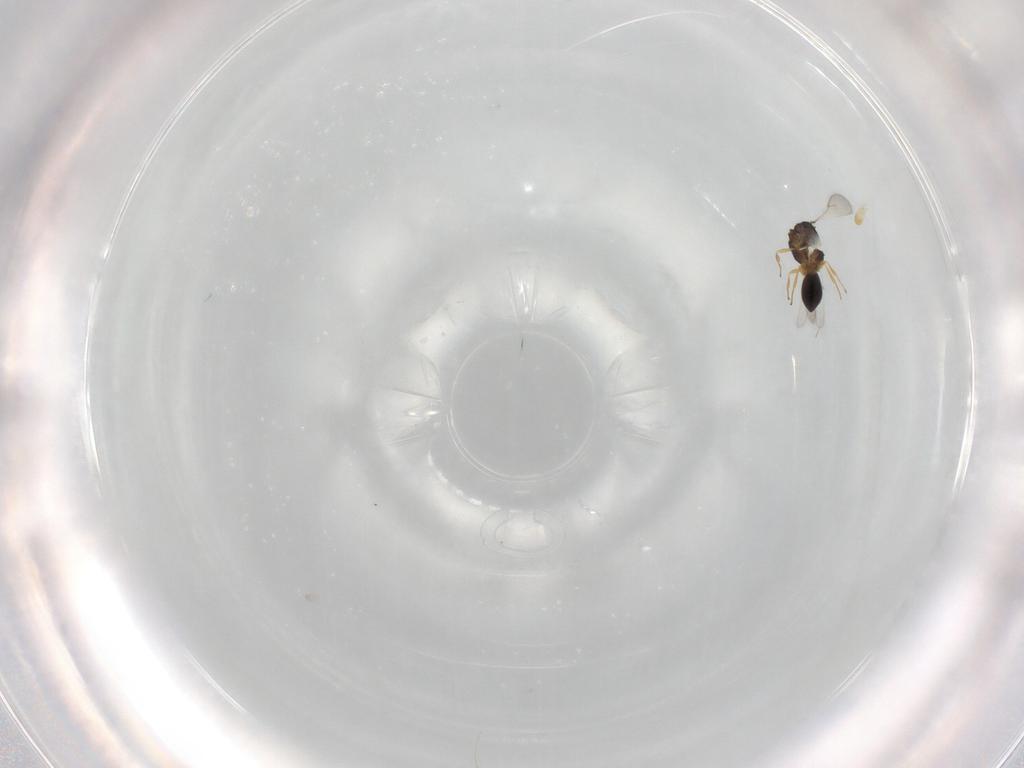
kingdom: Animalia
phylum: Arthropoda
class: Insecta
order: Hymenoptera
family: Scelionidae
